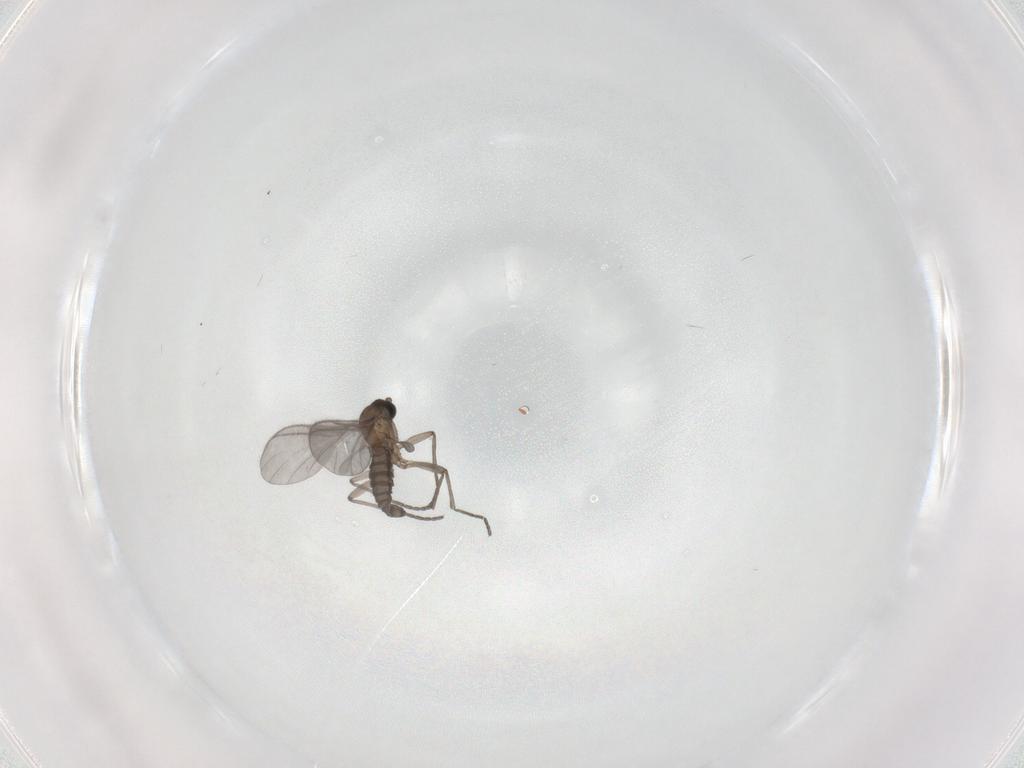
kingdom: Animalia
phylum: Arthropoda
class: Insecta
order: Diptera
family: Sciaridae
